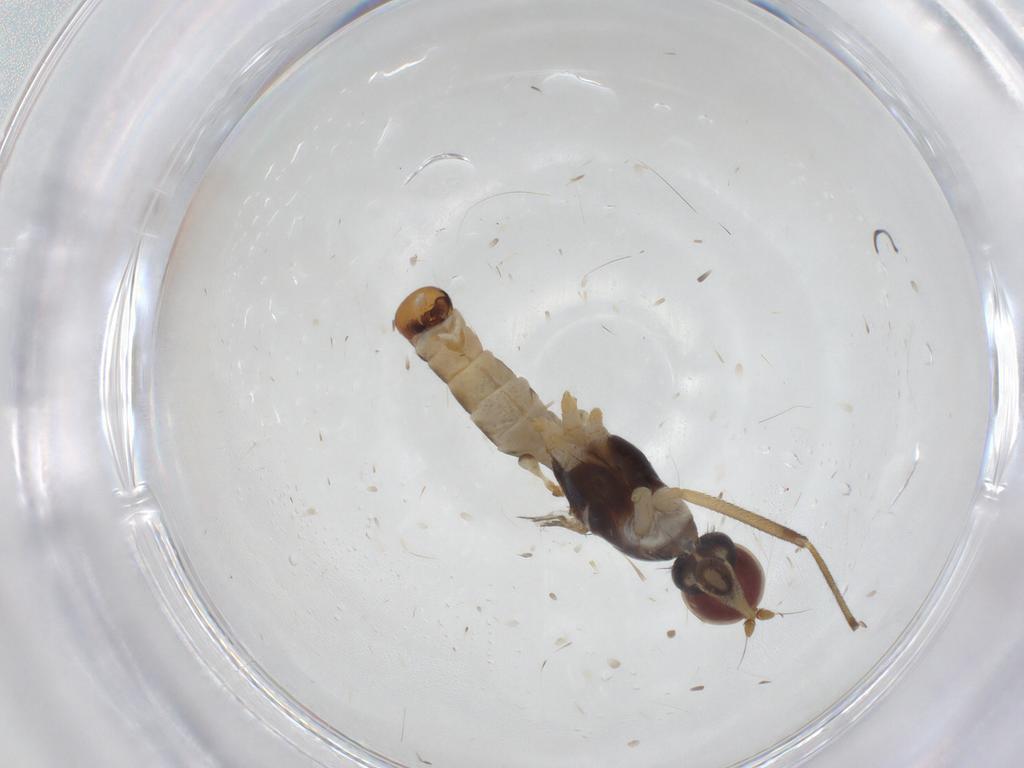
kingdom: Animalia
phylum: Arthropoda
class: Insecta
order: Diptera
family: Micropezidae
